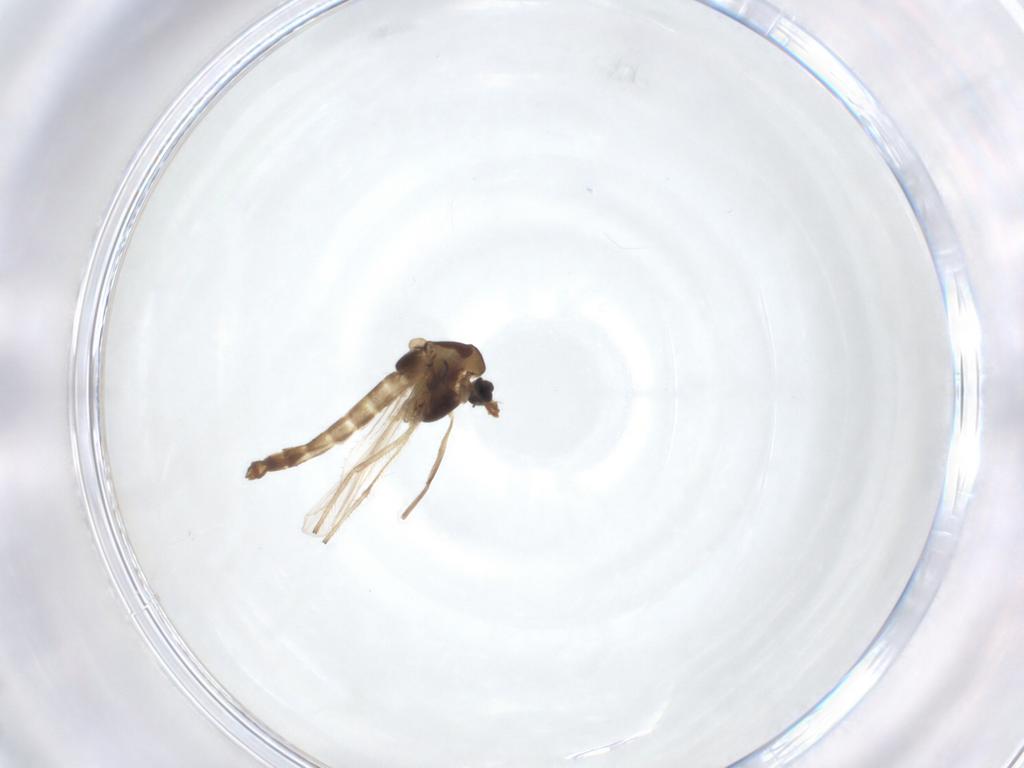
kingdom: Animalia
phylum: Arthropoda
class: Insecta
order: Diptera
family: Chironomidae
